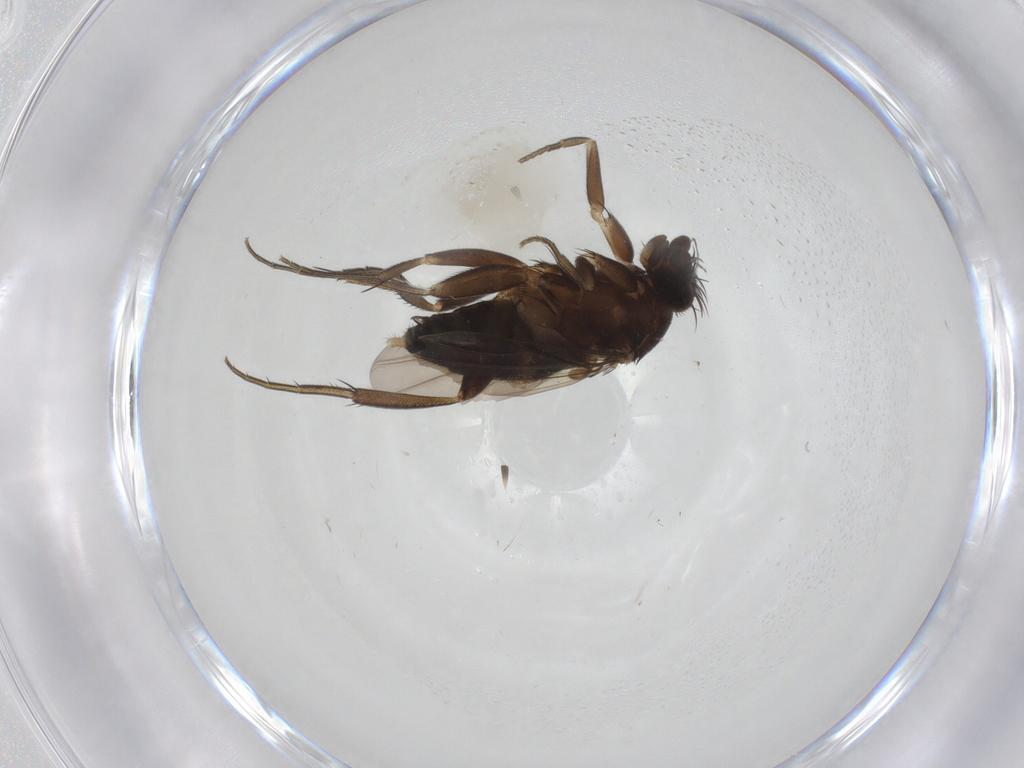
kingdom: Animalia
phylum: Arthropoda
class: Insecta
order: Diptera
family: Phoridae
